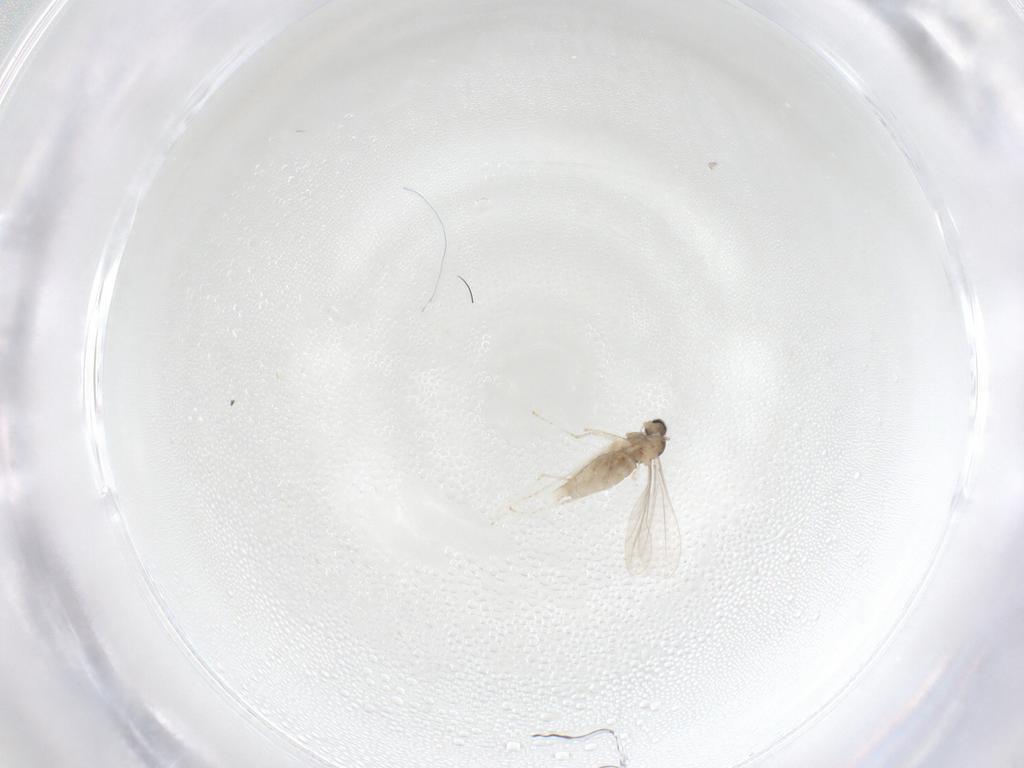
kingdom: Animalia
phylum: Arthropoda
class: Insecta
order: Diptera
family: Cecidomyiidae
